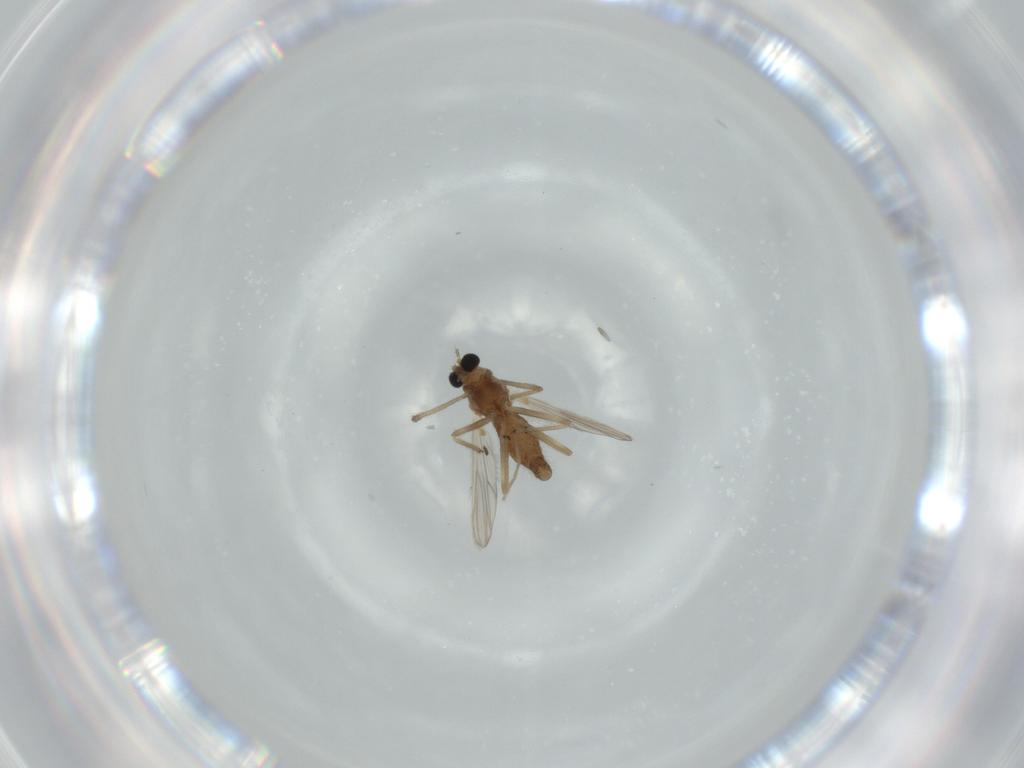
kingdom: Animalia
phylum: Arthropoda
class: Insecta
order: Diptera
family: Chironomidae
